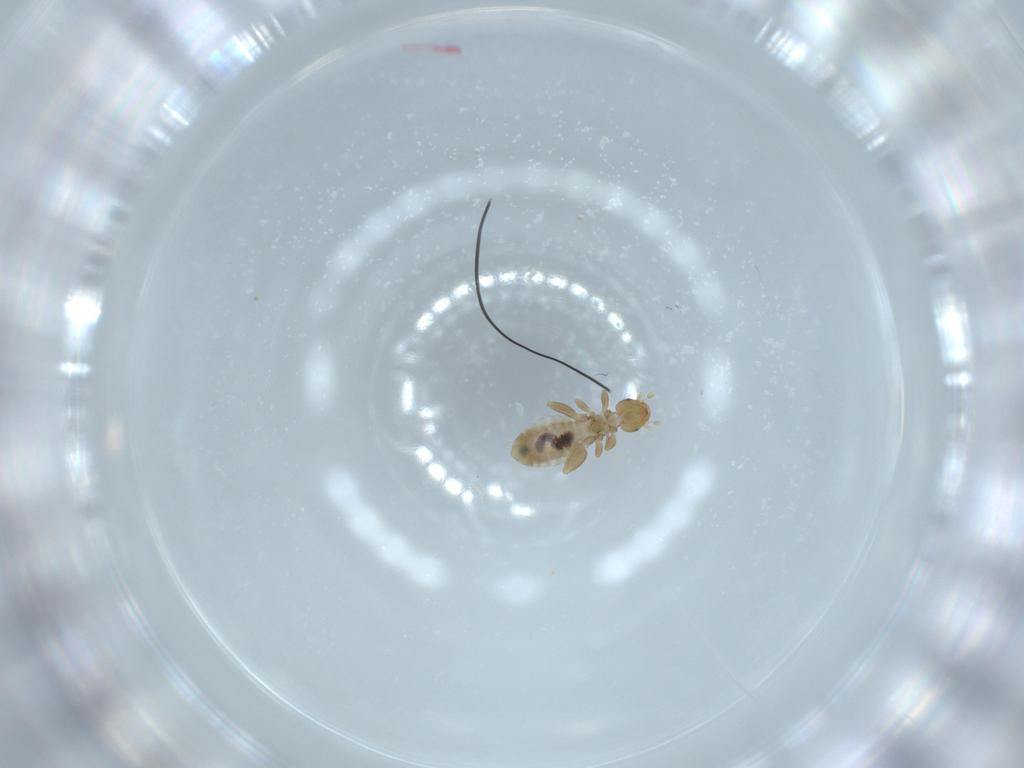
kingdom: Animalia
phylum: Arthropoda
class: Insecta
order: Psocodea
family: Liposcelididae
